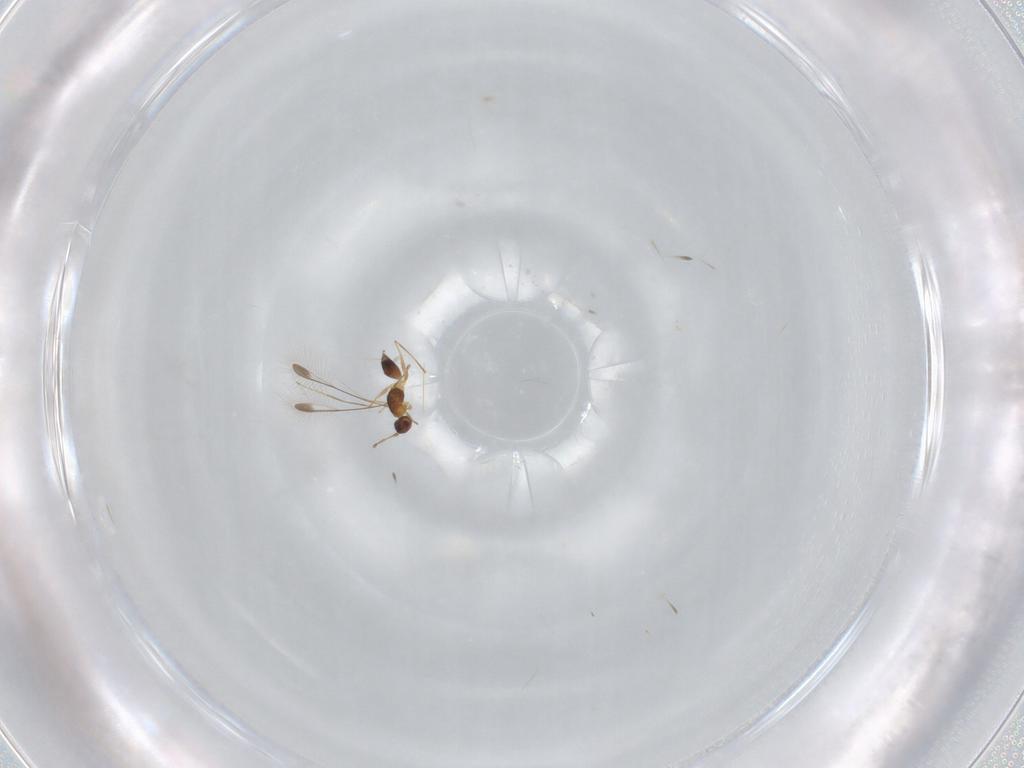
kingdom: Animalia
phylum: Arthropoda
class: Insecta
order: Hymenoptera
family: Mymaridae
